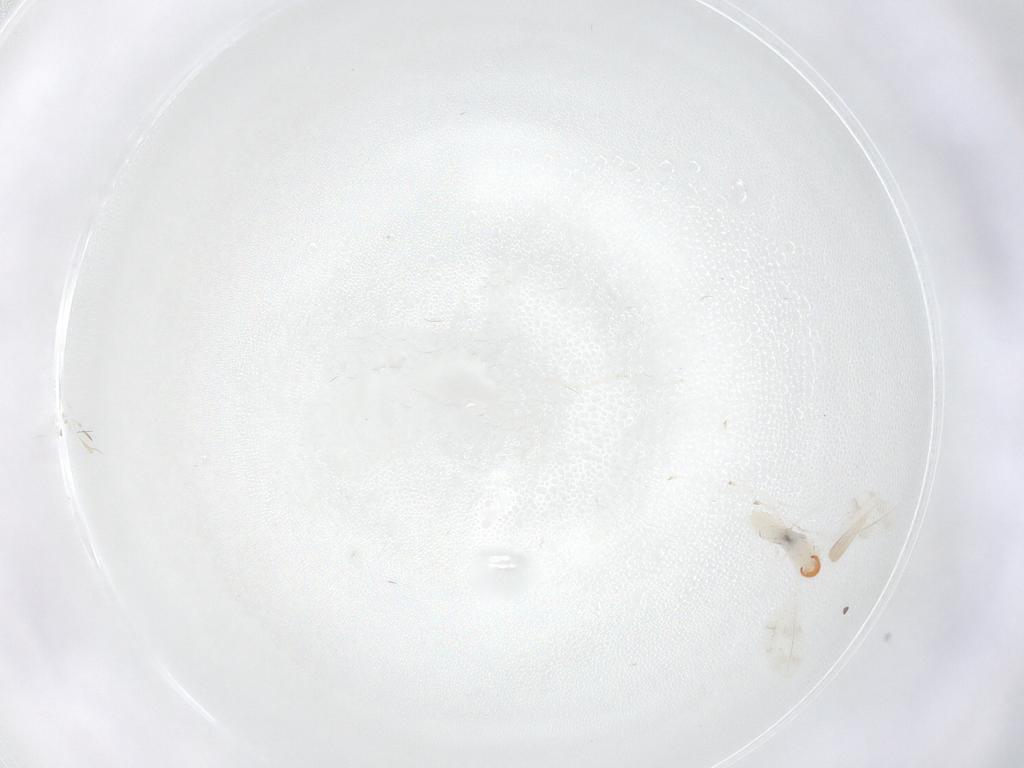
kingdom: Animalia
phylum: Arthropoda
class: Insecta
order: Diptera
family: Cecidomyiidae
